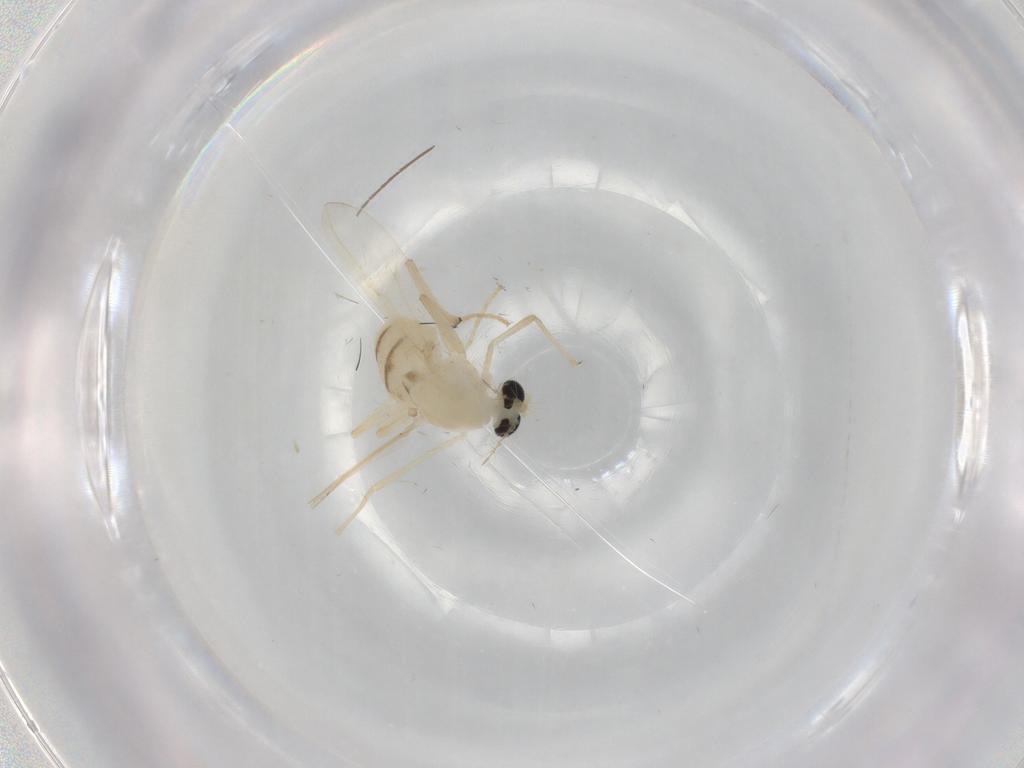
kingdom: Animalia
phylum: Arthropoda
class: Insecta
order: Diptera
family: Chironomidae
